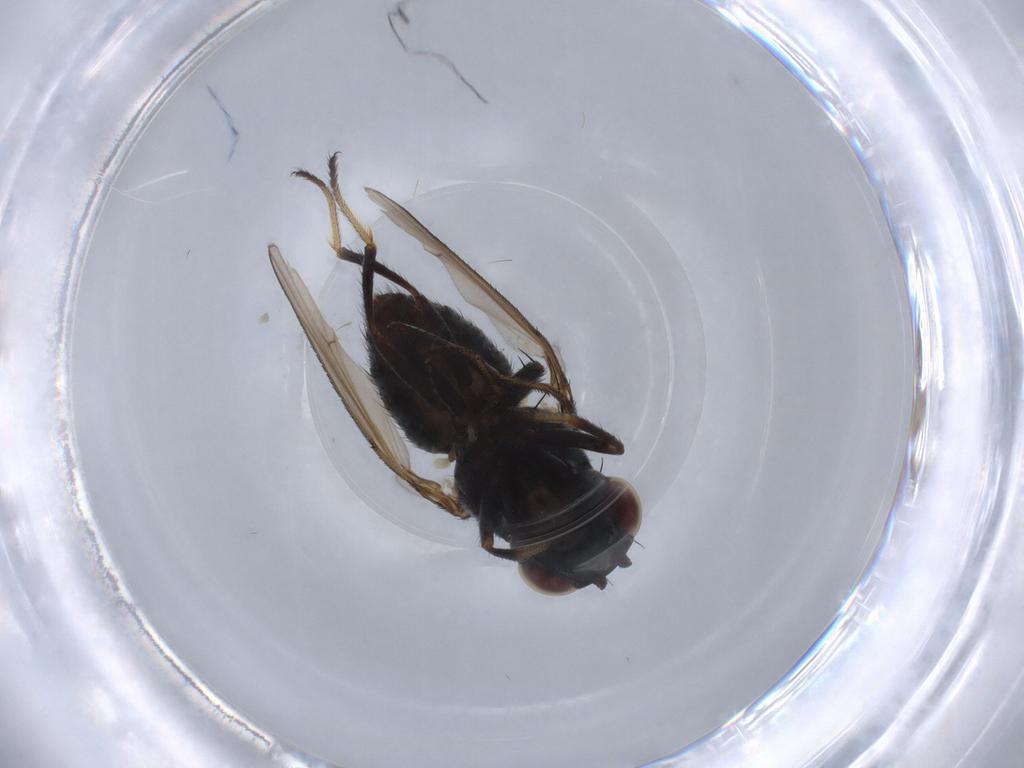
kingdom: Animalia
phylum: Arthropoda
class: Insecta
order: Diptera
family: Ephydridae
